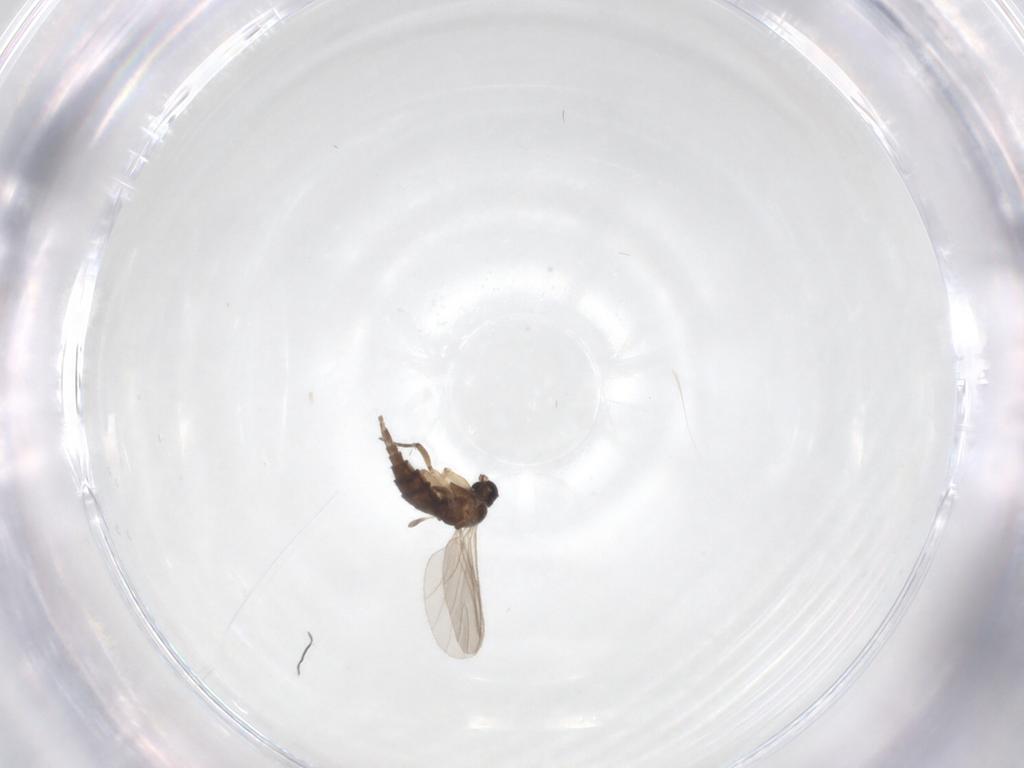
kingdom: Animalia
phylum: Arthropoda
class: Insecta
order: Diptera
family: Sciaridae
